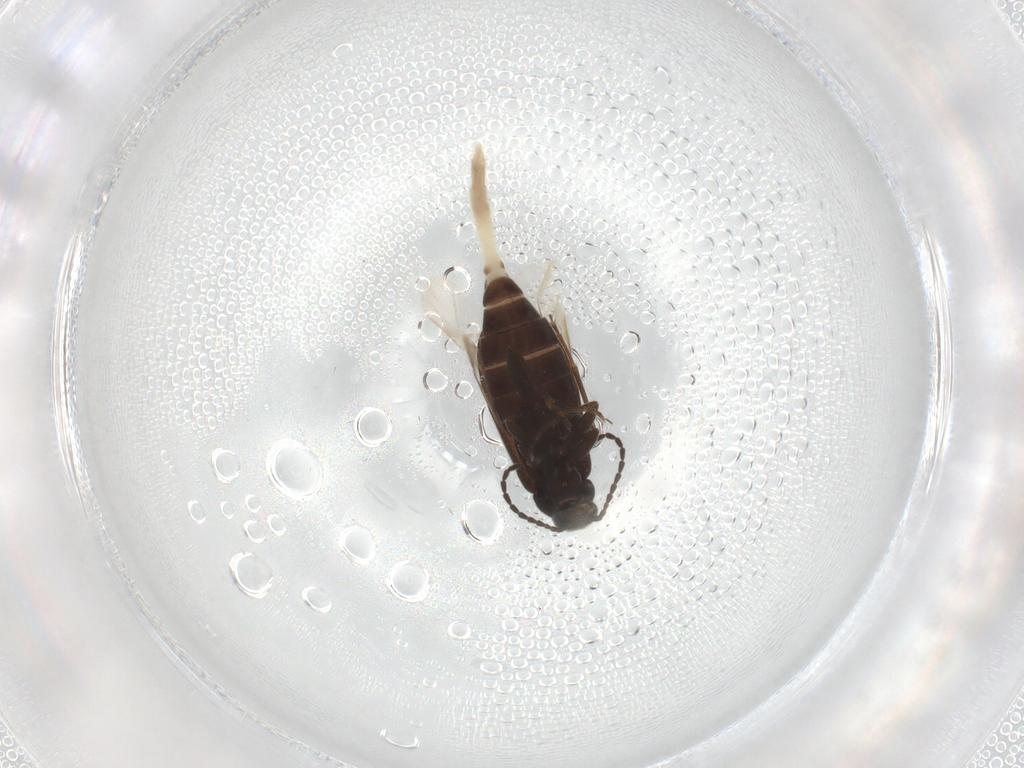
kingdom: Animalia
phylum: Arthropoda
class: Insecta
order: Coleoptera
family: Scraptiidae
